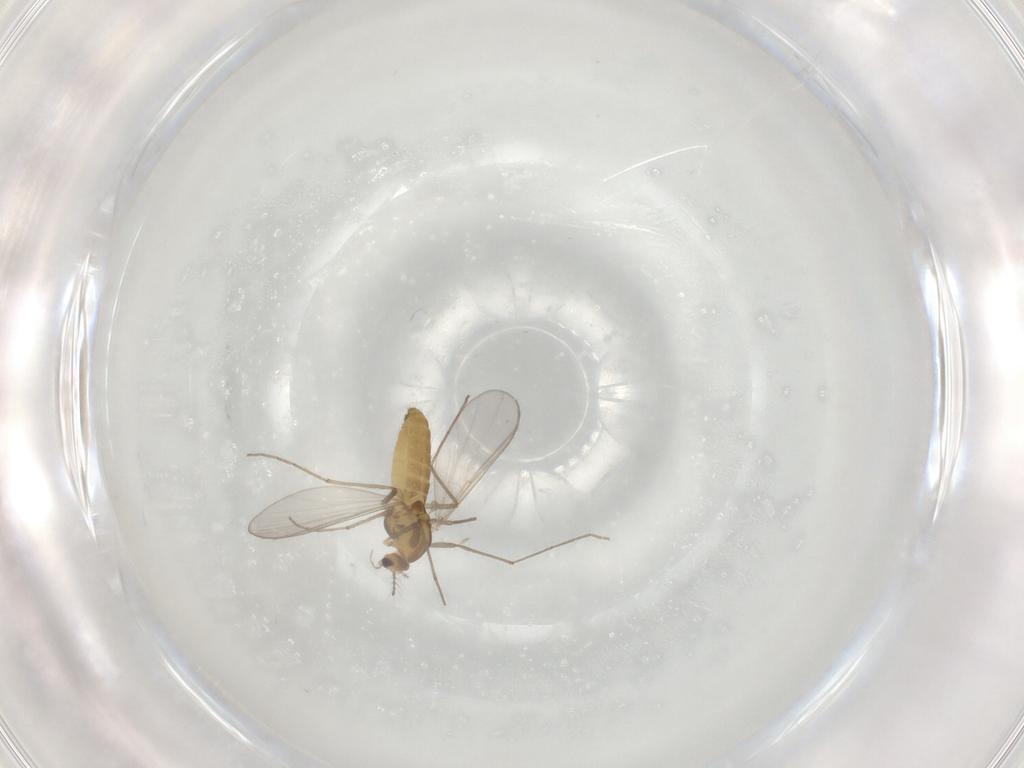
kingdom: Animalia
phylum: Arthropoda
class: Insecta
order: Diptera
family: Chironomidae
